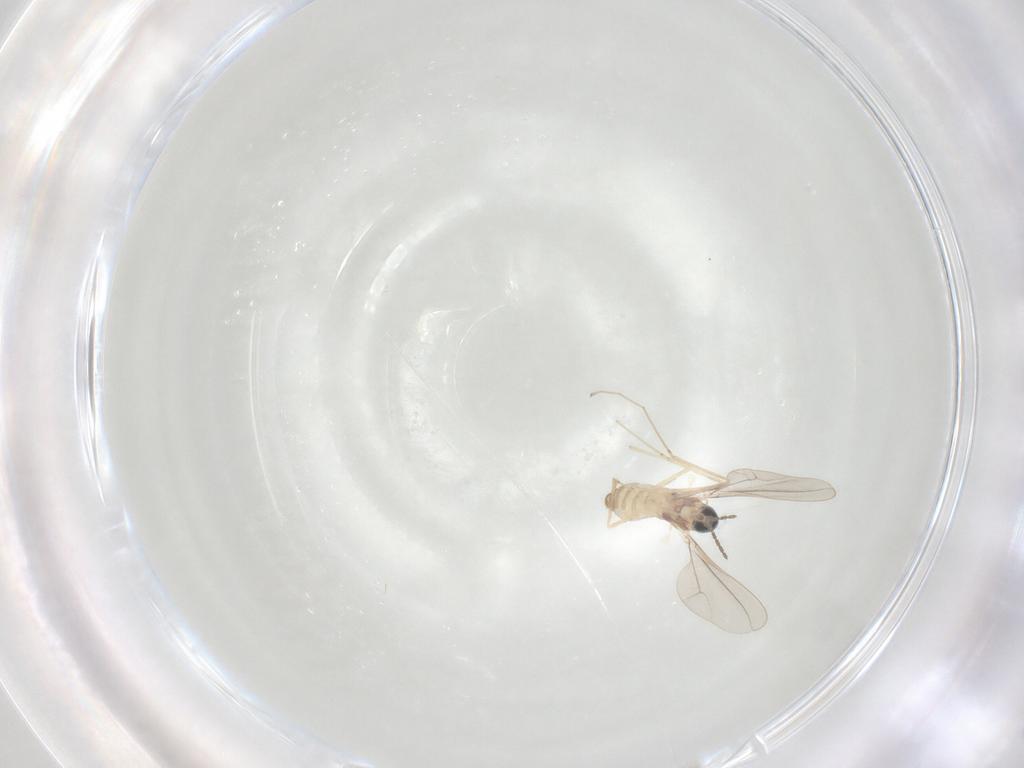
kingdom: Animalia
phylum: Arthropoda
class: Insecta
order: Diptera
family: Cecidomyiidae
